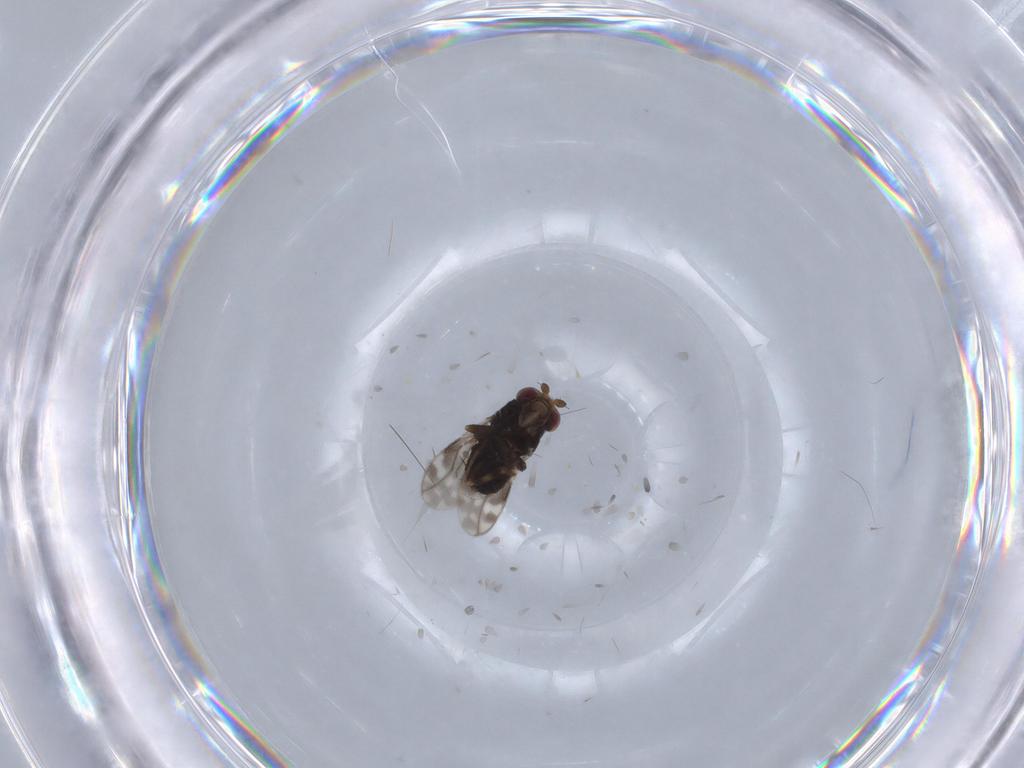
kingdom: Animalia
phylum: Arthropoda
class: Insecta
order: Diptera
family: Sphaeroceridae
